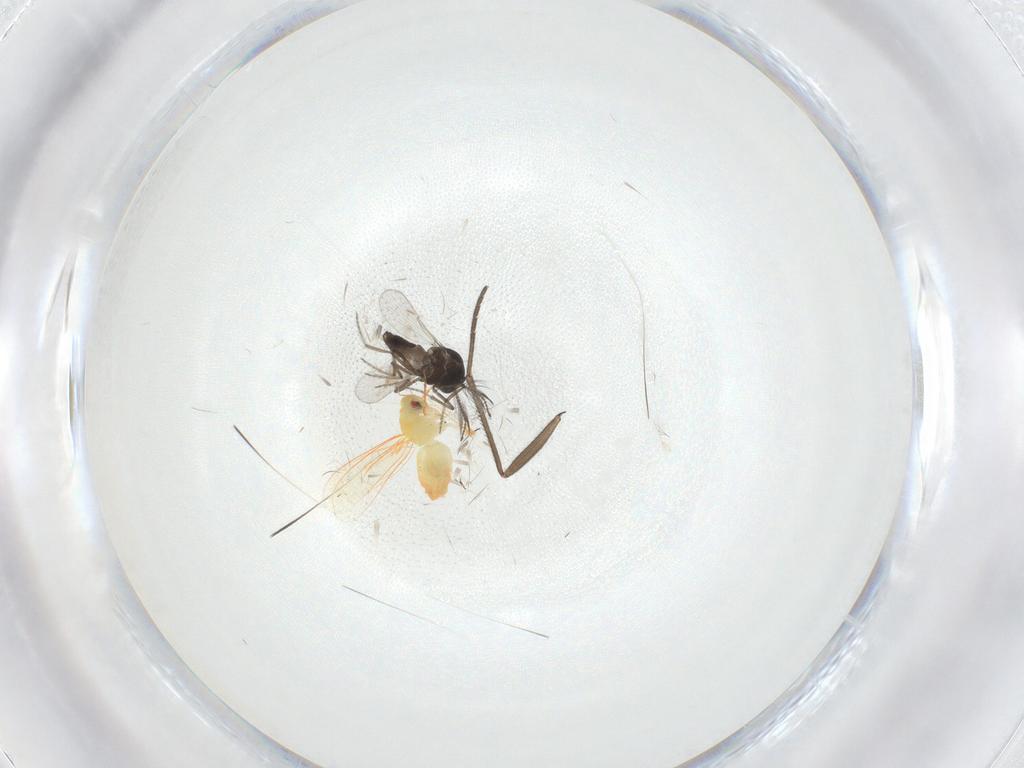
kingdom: Animalia
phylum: Arthropoda
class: Insecta
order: Diptera
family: Ceratopogonidae
